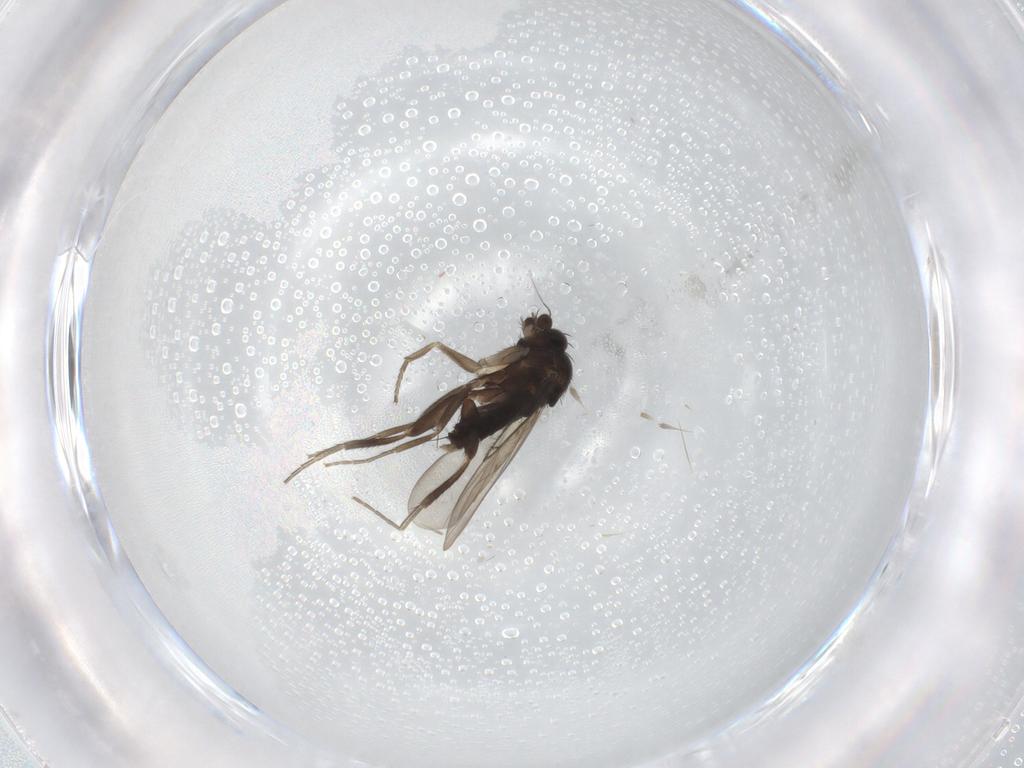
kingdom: Animalia
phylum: Arthropoda
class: Insecta
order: Diptera
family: Phoridae
